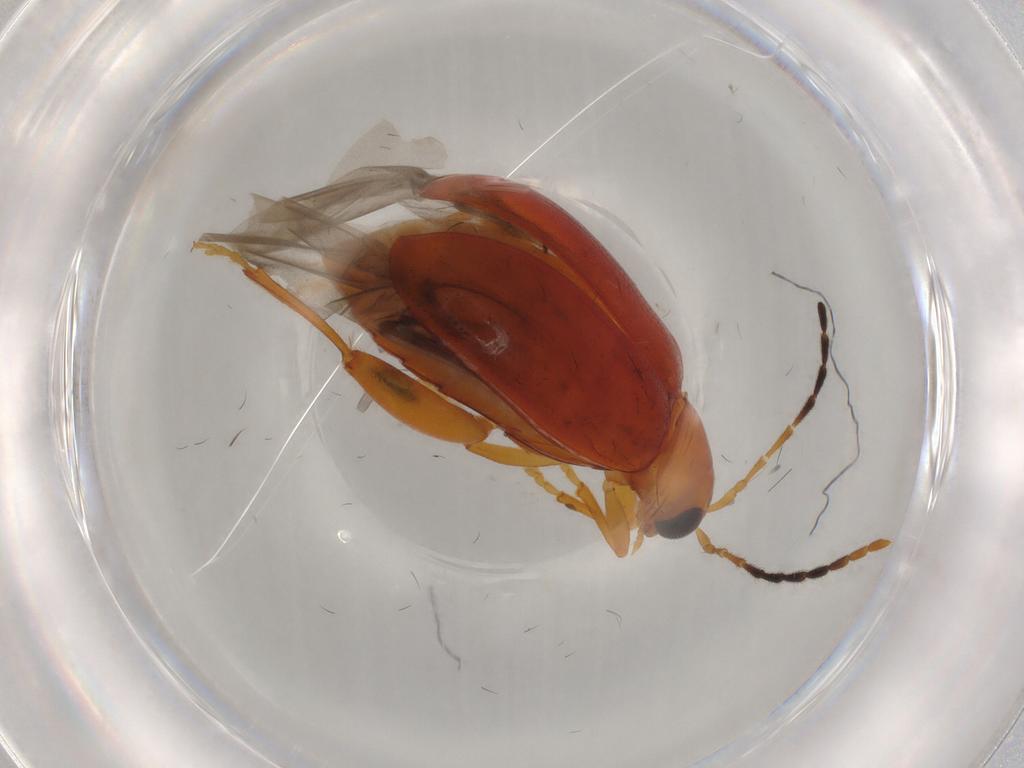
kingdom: Animalia
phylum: Arthropoda
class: Insecta
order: Coleoptera
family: Chrysomelidae
